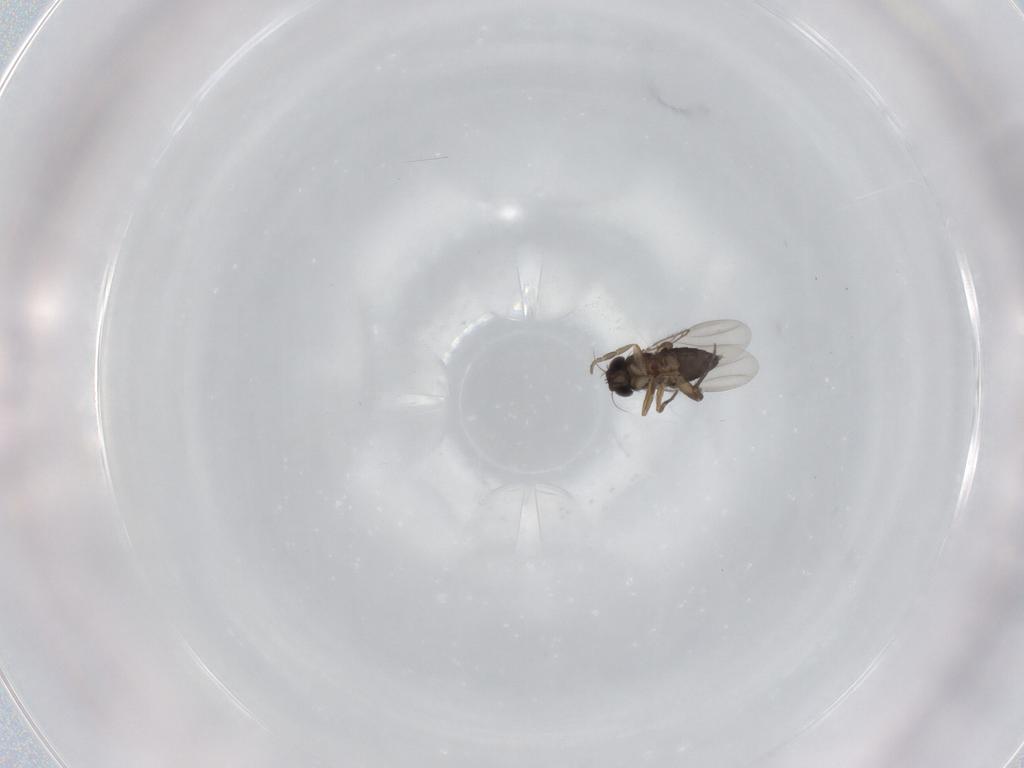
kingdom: Animalia
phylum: Arthropoda
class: Insecta
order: Diptera
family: Phoridae
